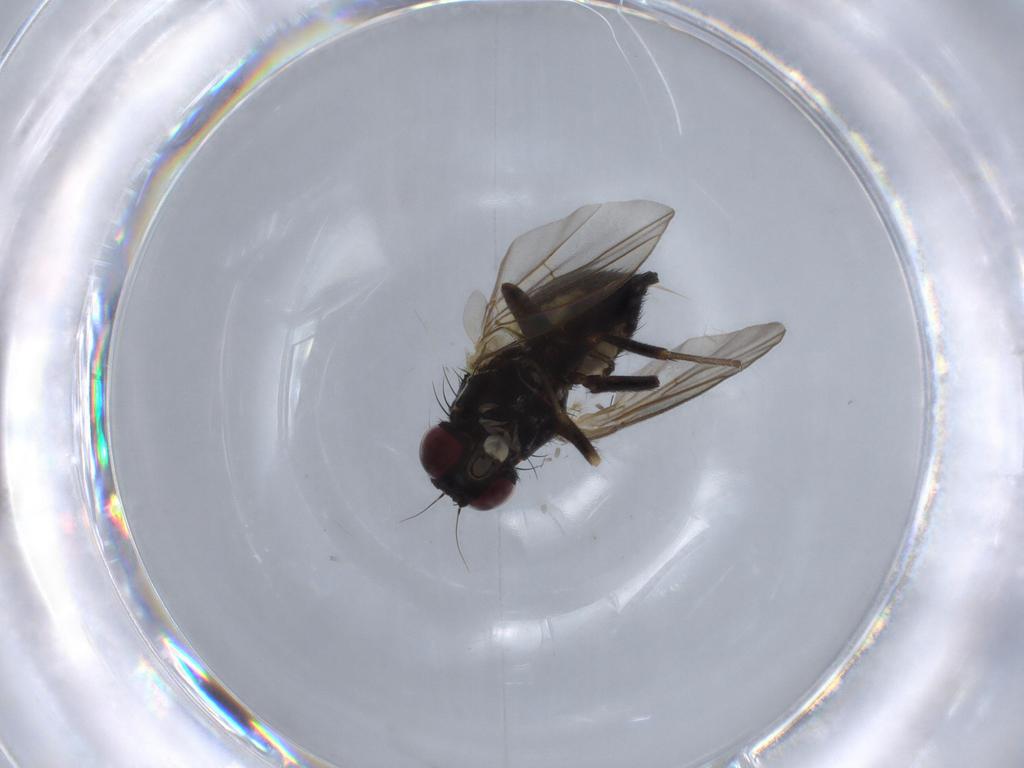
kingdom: Animalia
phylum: Arthropoda
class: Insecta
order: Diptera
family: Agromyzidae
